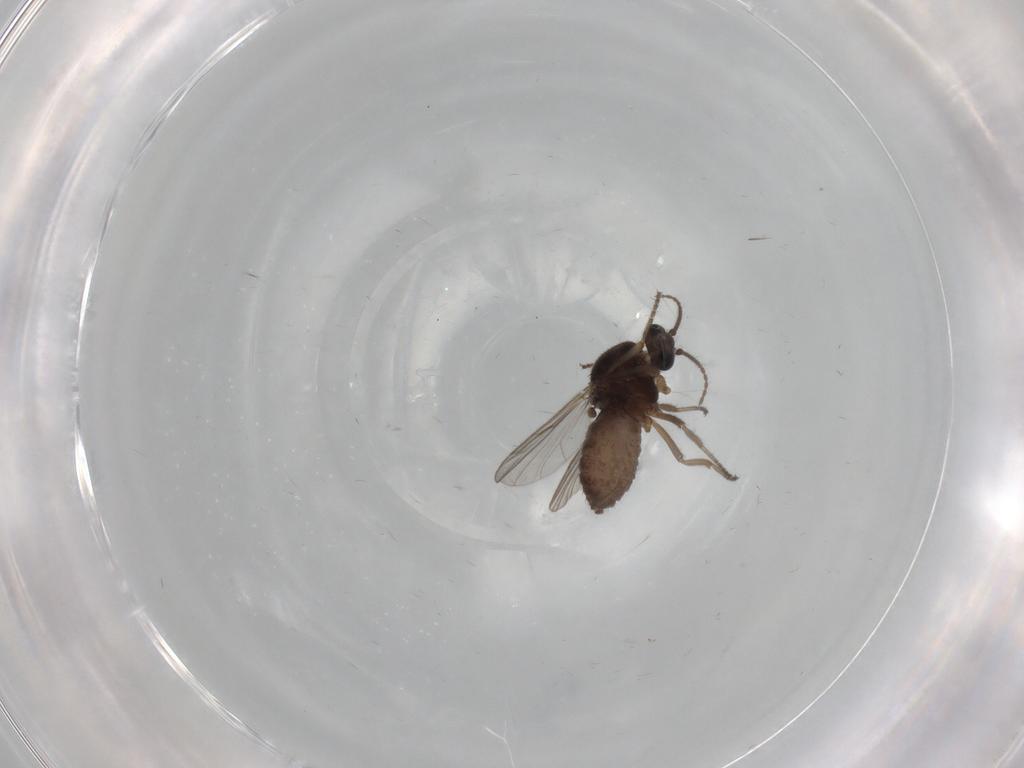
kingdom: Animalia
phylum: Arthropoda
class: Insecta
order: Diptera
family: Ceratopogonidae
